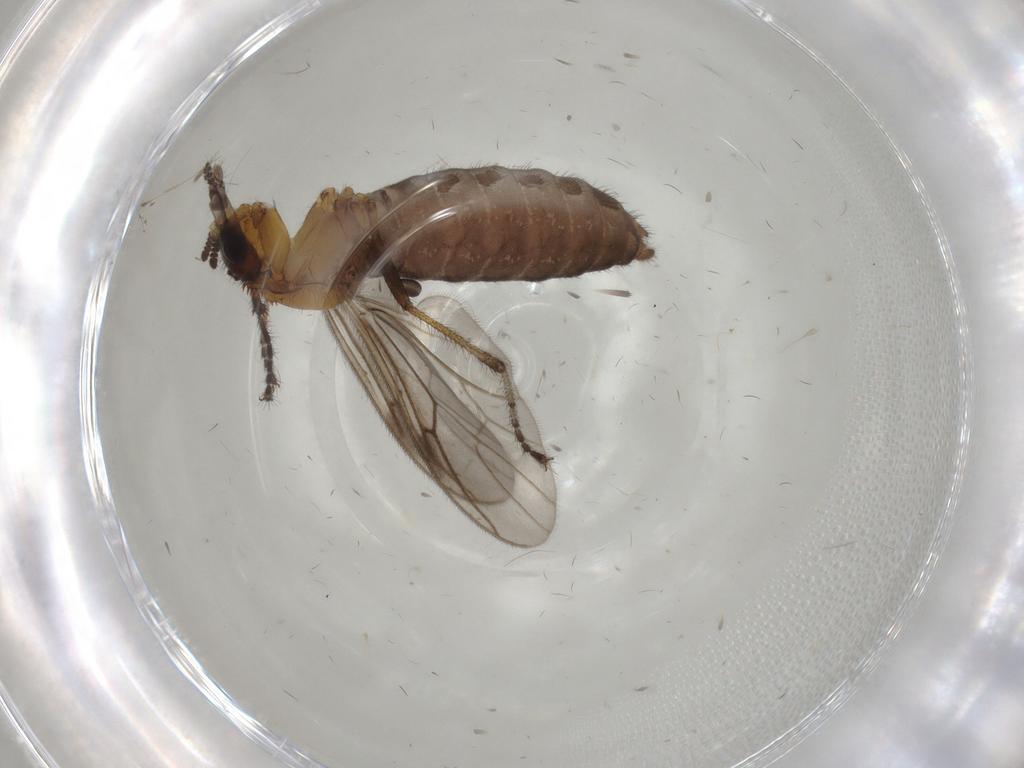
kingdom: Animalia
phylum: Arthropoda
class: Insecta
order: Diptera
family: Bibionidae
